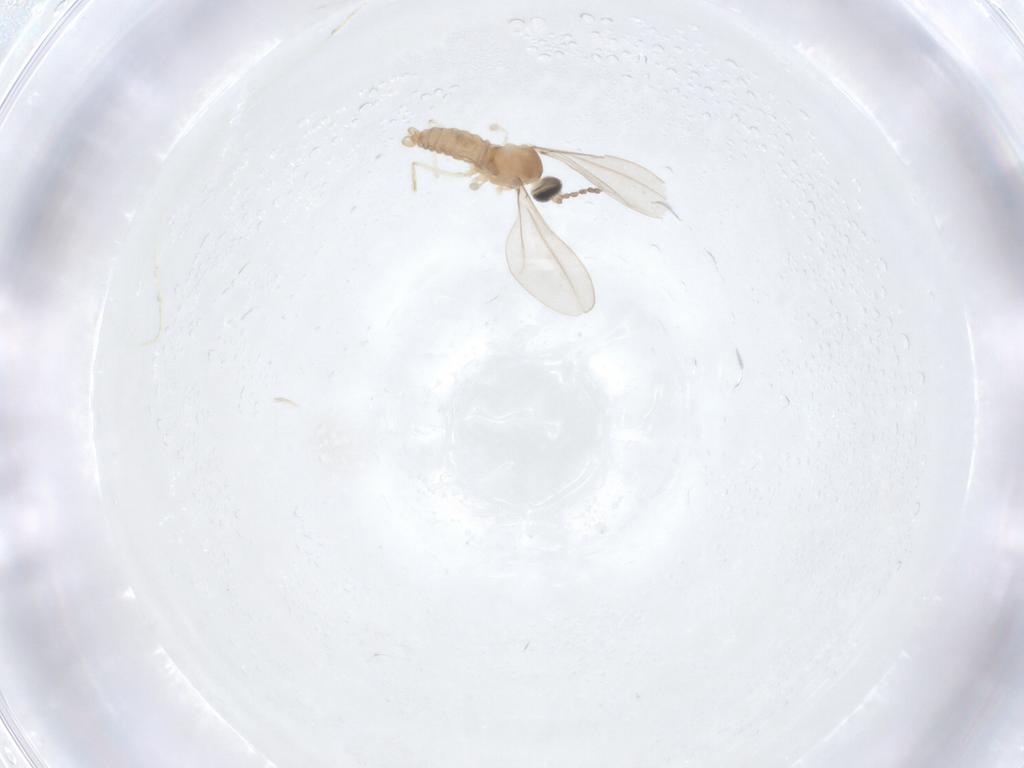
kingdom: Animalia
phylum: Arthropoda
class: Insecta
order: Diptera
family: Cecidomyiidae
